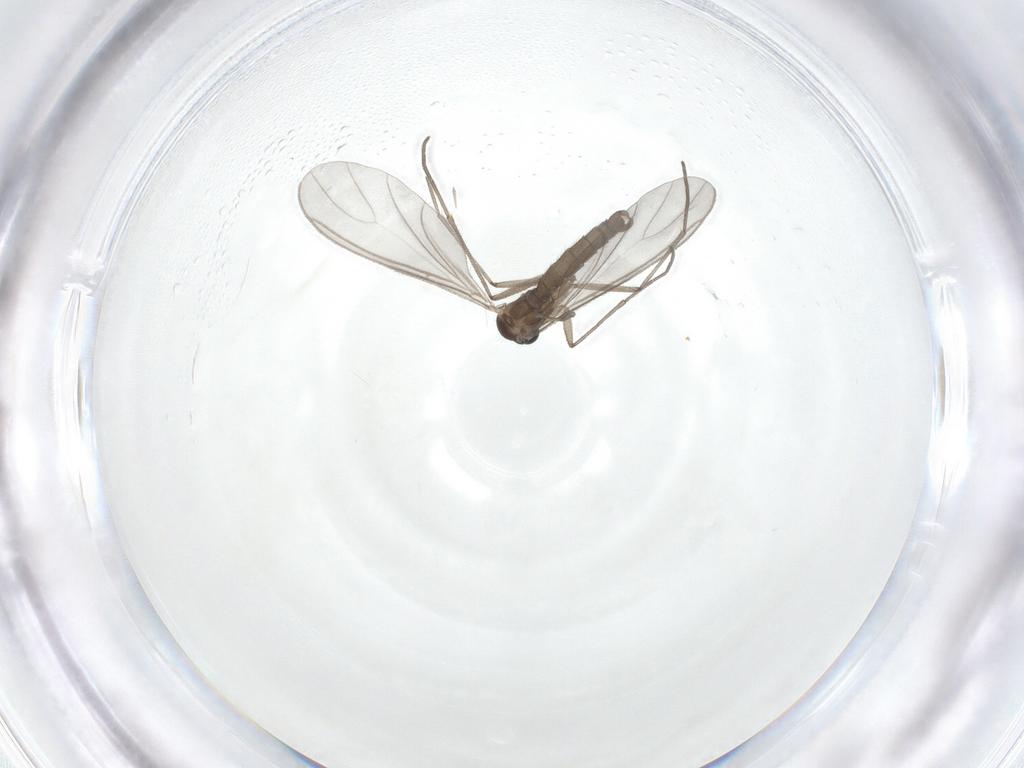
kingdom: Animalia
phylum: Arthropoda
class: Insecta
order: Diptera
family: Sciaridae
